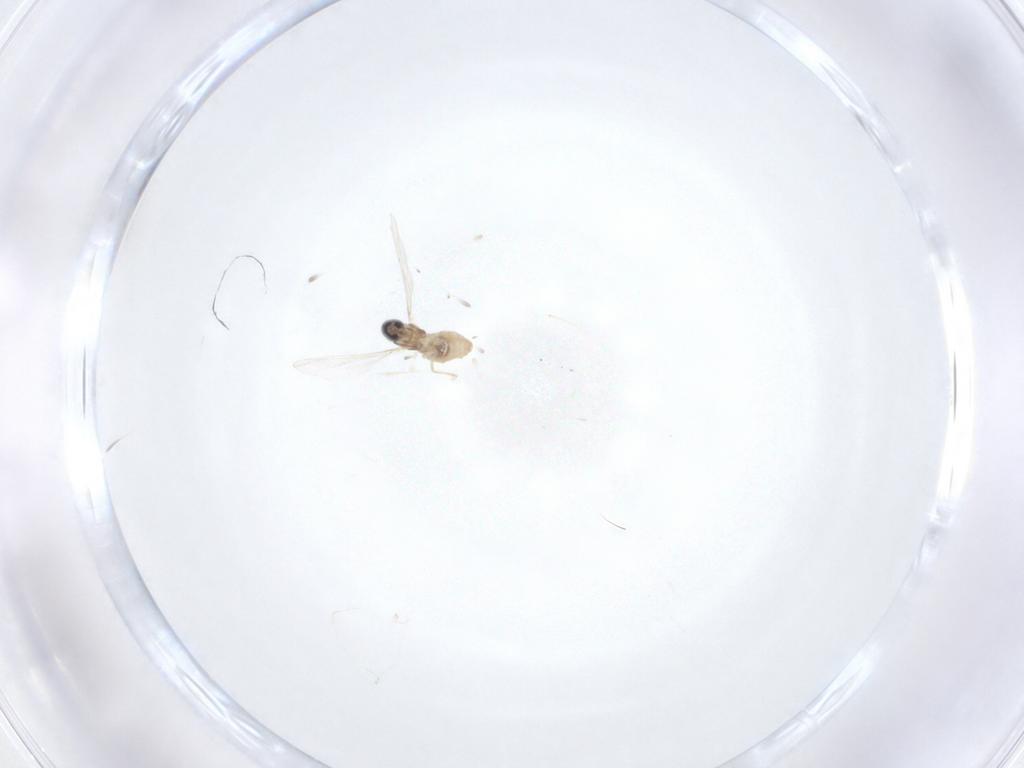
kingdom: Animalia
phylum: Arthropoda
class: Insecta
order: Diptera
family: Cecidomyiidae
